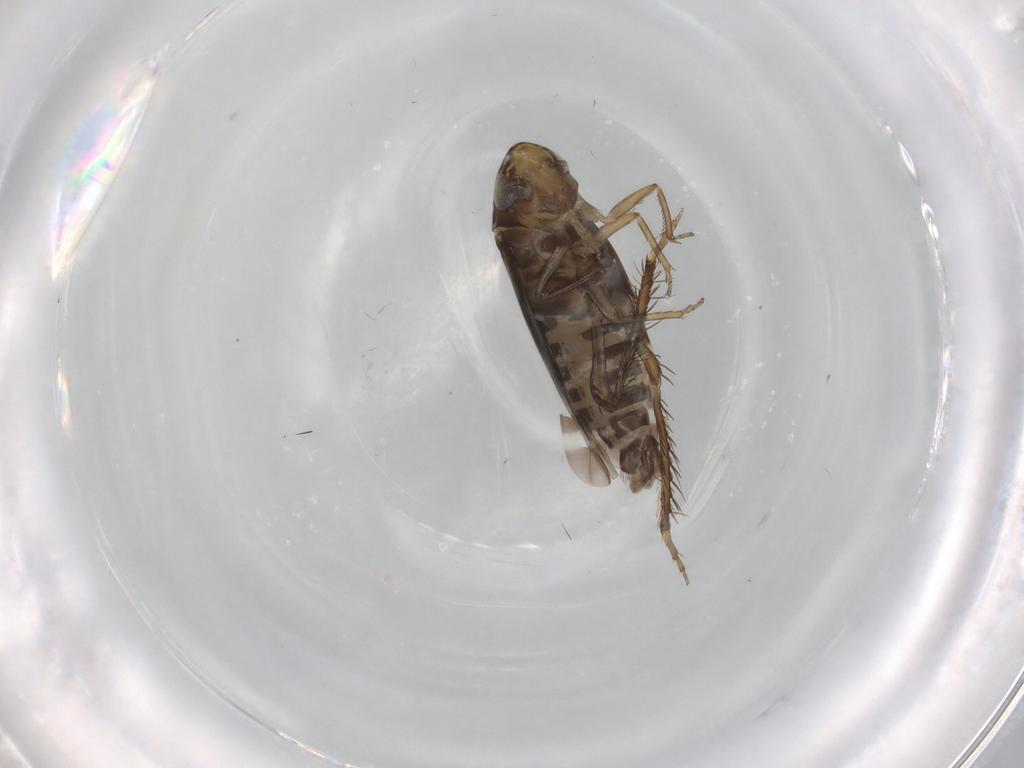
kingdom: Animalia
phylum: Arthropoda
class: Insecta
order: Hemiptera
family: Cicadellidae
